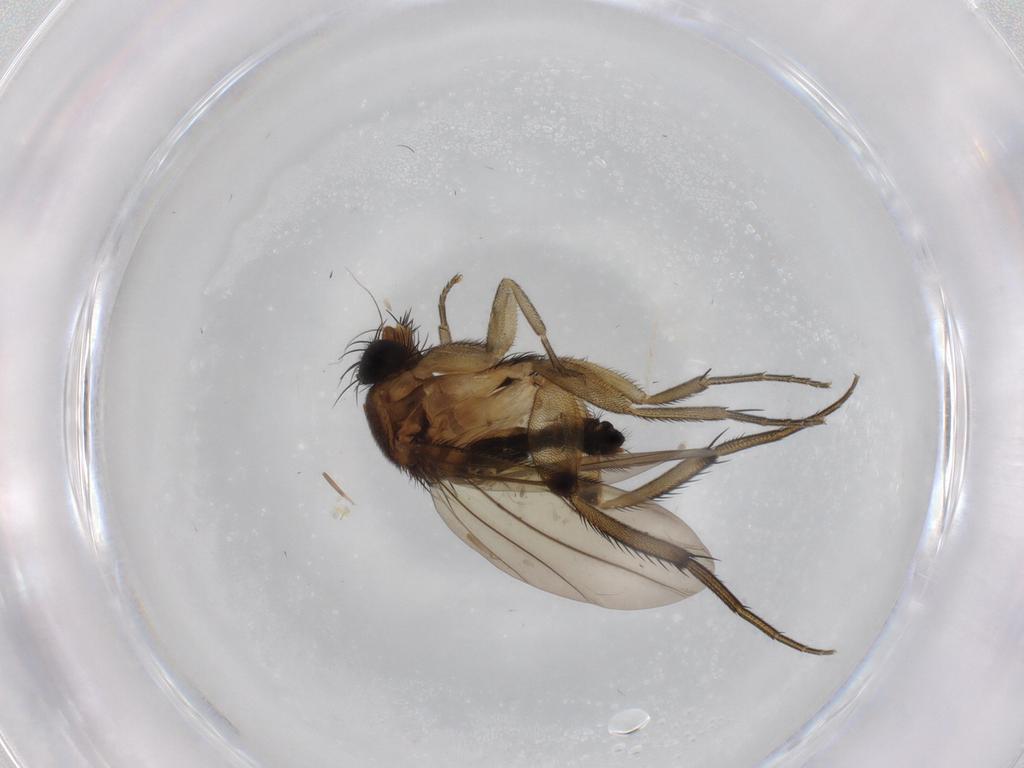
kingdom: Animalia
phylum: Arthropoda
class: Insecta
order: Diptera
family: Phoridae
